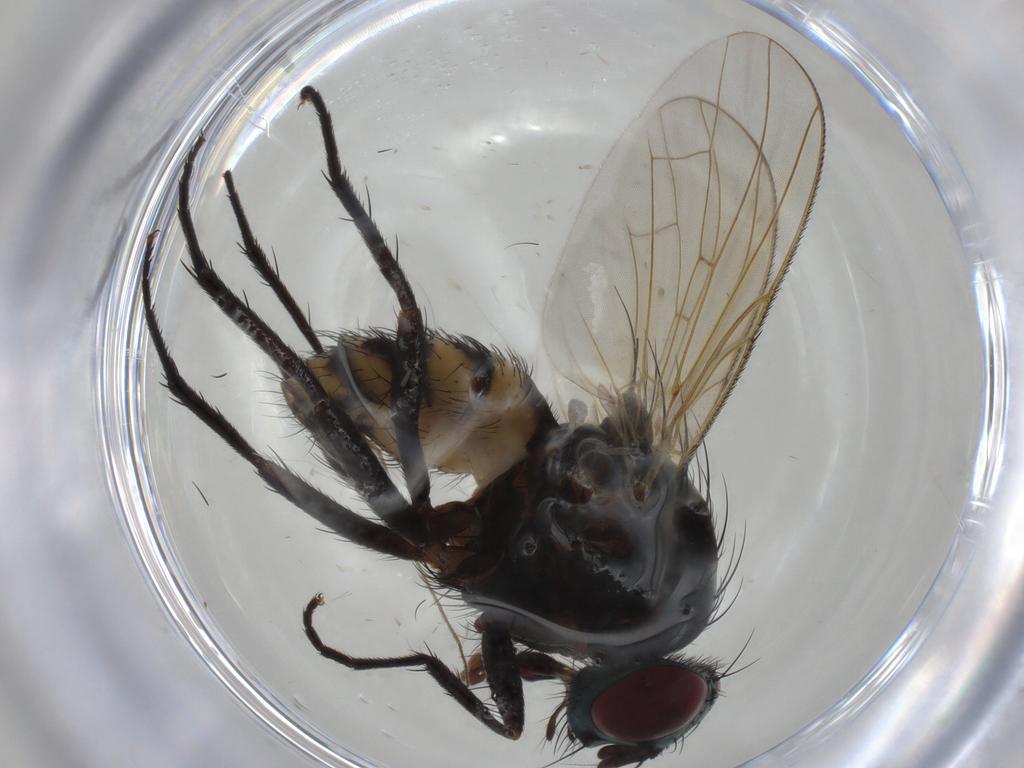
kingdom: Animalia
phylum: Arthropoda
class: Insecta
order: Diptera
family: Anthomyiidae
